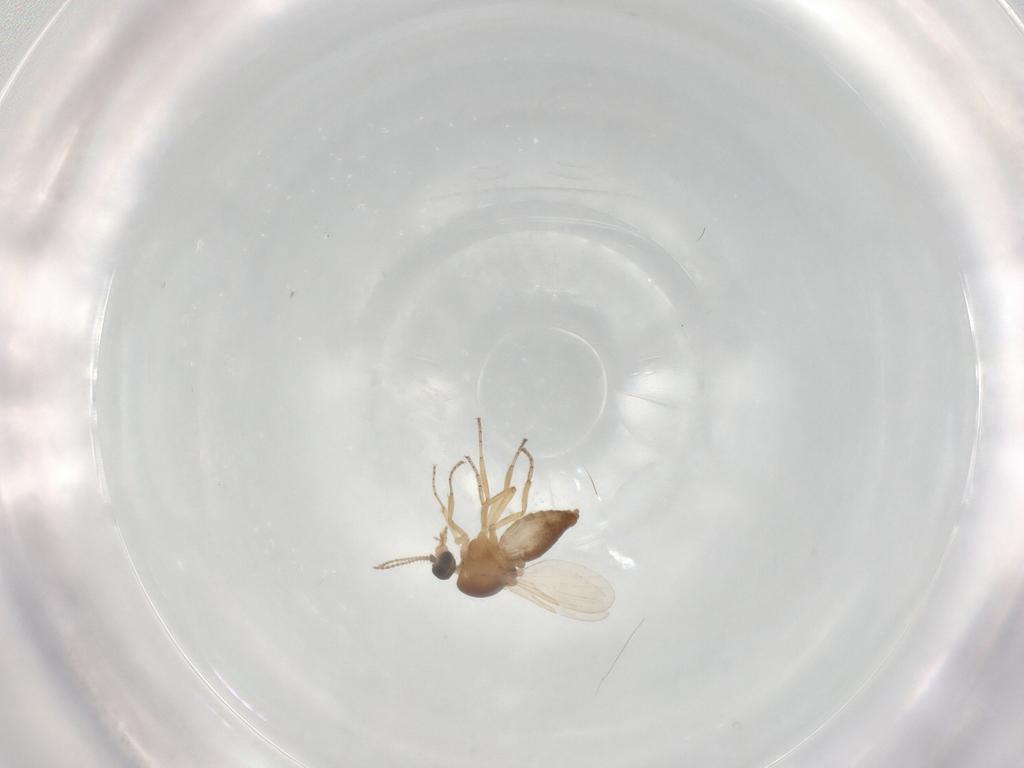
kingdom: Animalia
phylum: Arthropoda
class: Insecta
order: Diptera
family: Ceratopogonidae
